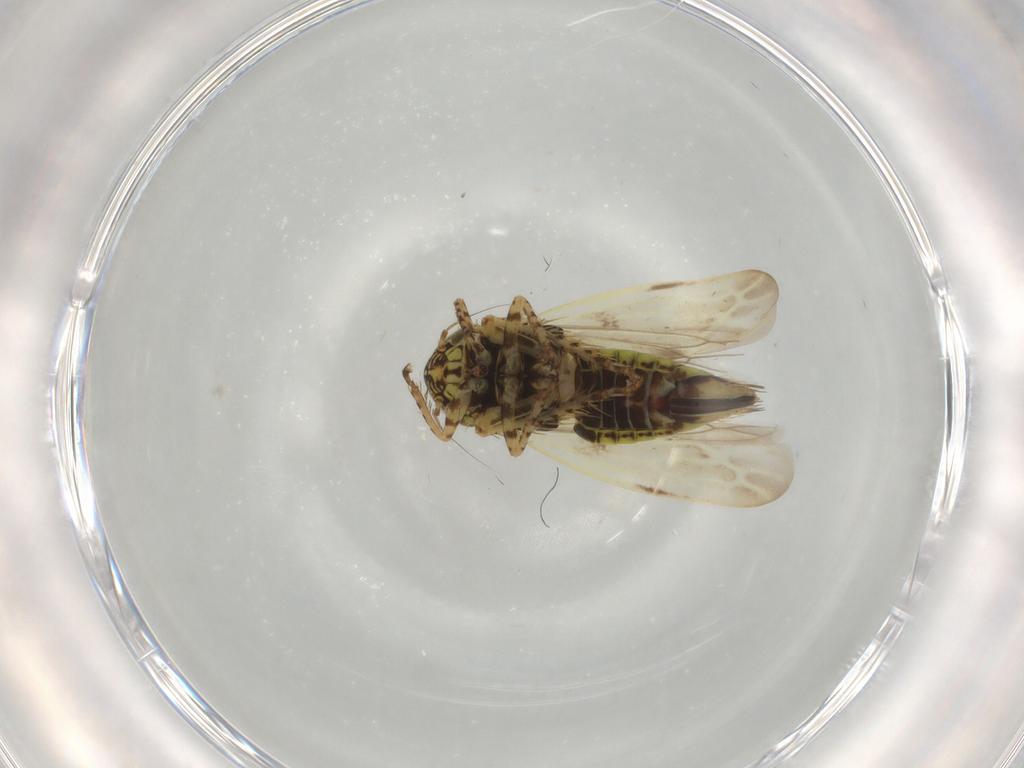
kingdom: Animalia
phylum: Arthropoda
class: Insecta
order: Hemiptera
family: Cicadellidae
